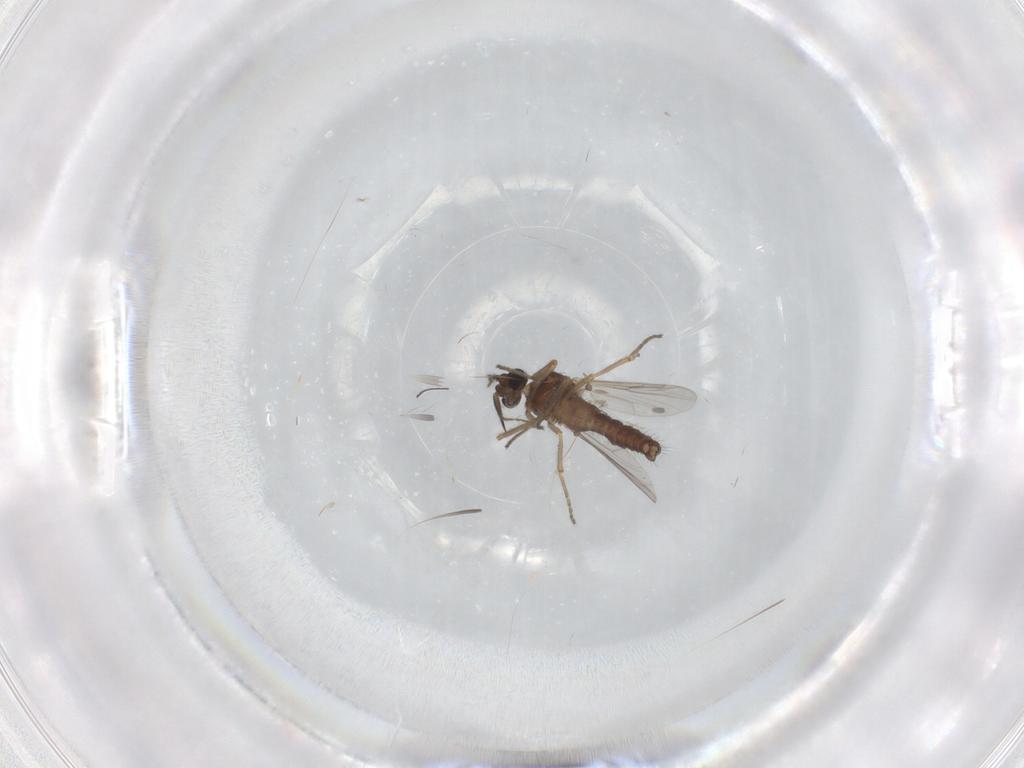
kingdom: Animalia
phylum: Arthropoda
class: Insecta
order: Diptera
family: Ceratopogonidae
